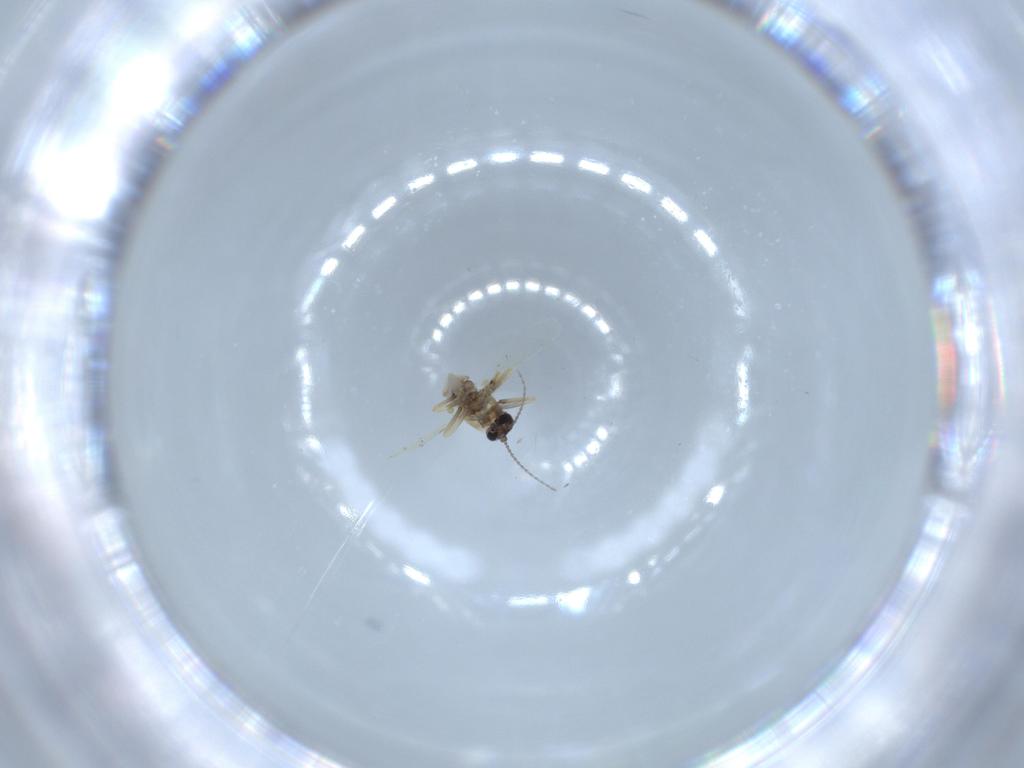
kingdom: Animalia
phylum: Arthropoda
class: Insecta
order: Diptera
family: Ceratopogonidae
